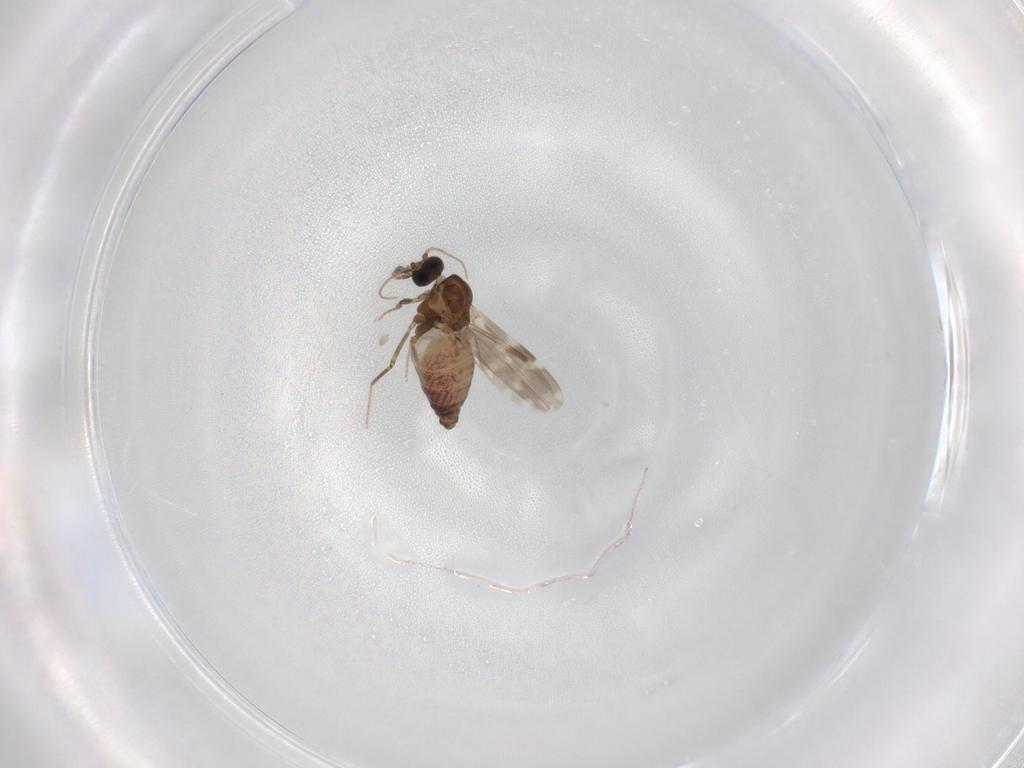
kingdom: Animalia
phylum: Arthropoda
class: Insecta
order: Diptera
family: Ceratopogonidae
